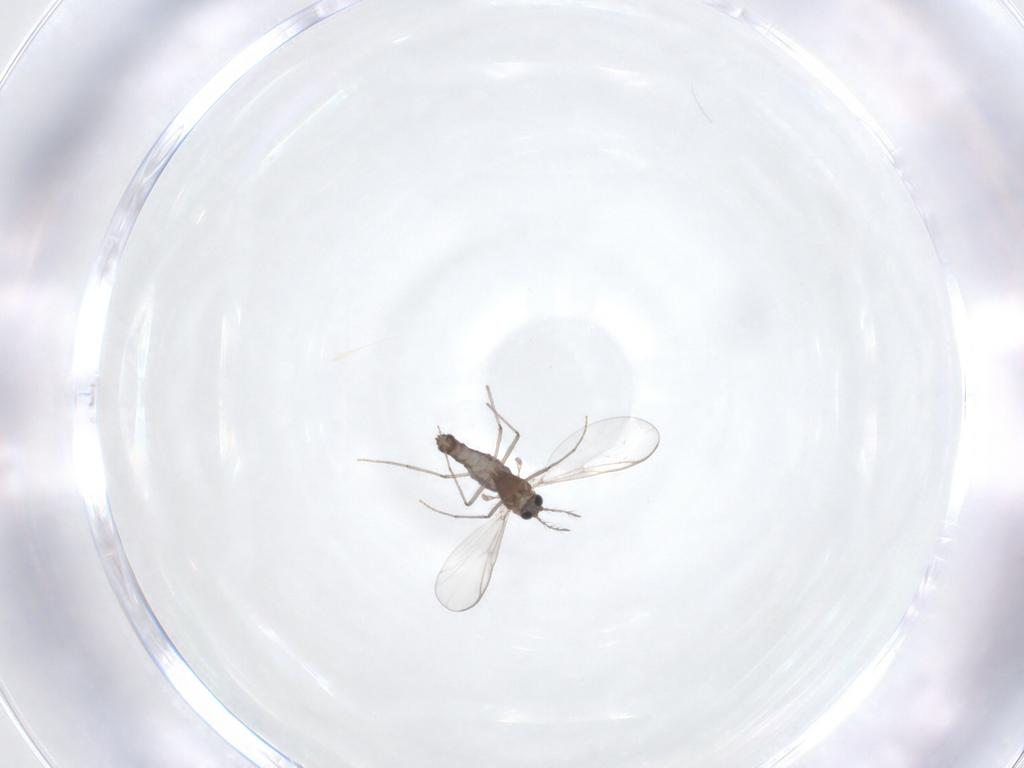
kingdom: Animalia
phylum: Arthropoda
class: Insecta
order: Diptera
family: Chironomidae
